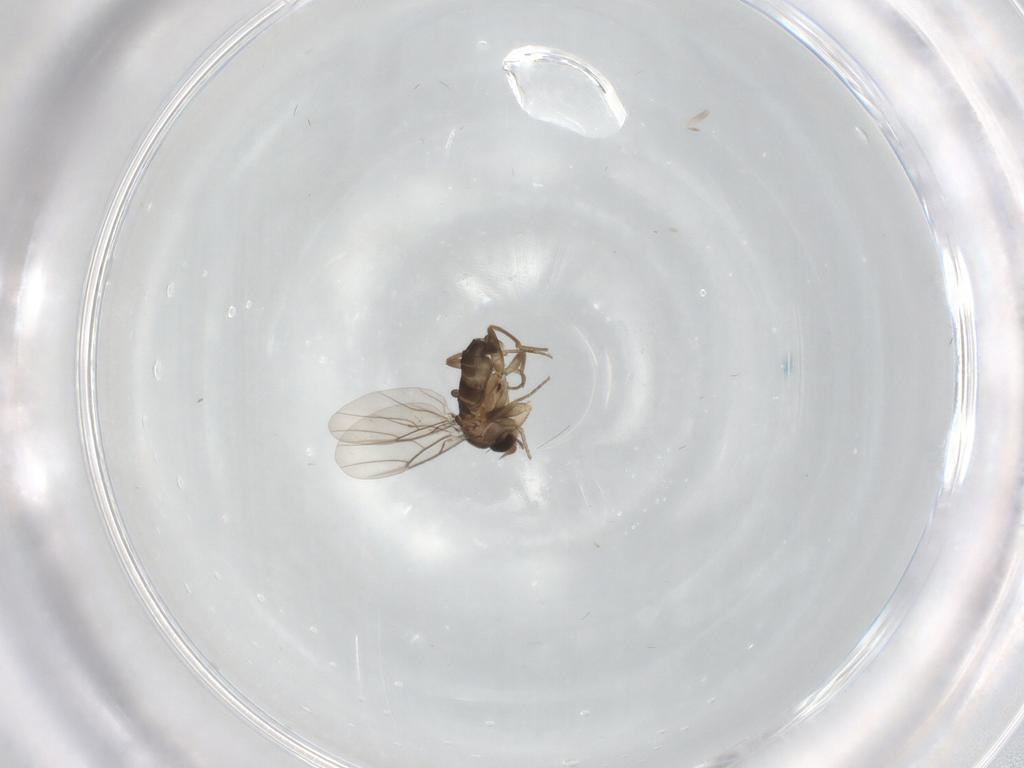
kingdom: Animalia
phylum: Arthropoda
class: Insecta
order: Diptera
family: Phoridae
